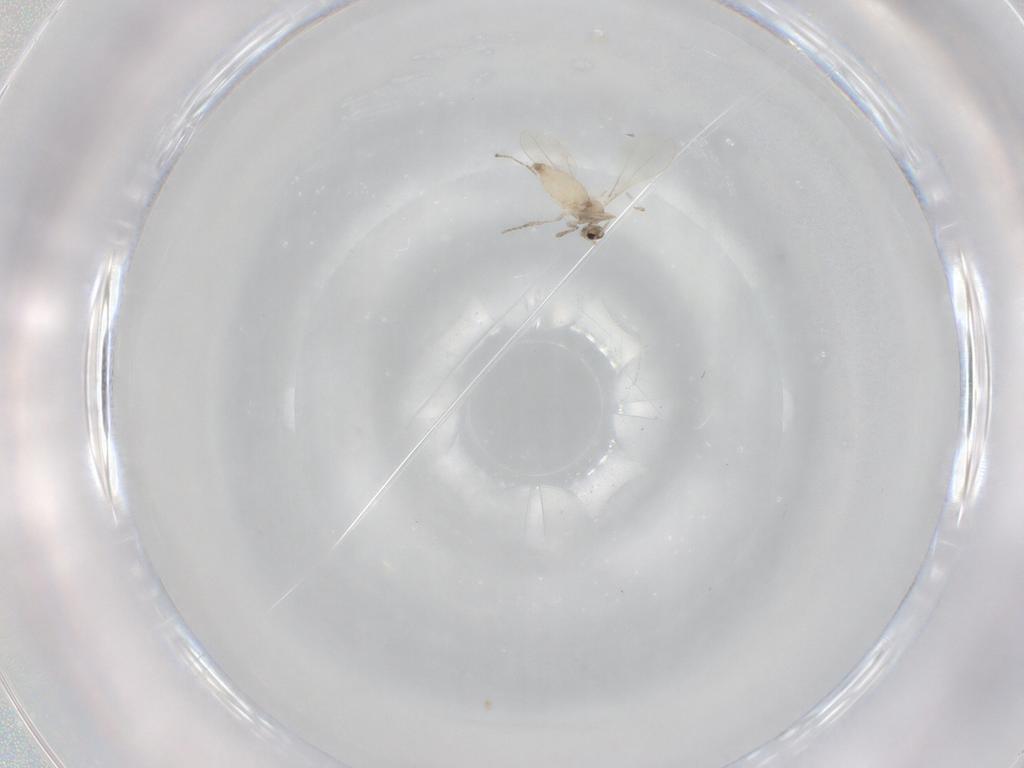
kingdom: Animalia
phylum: Arthropoda
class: Insecta
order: Diptera
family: Cecidomyiidae
